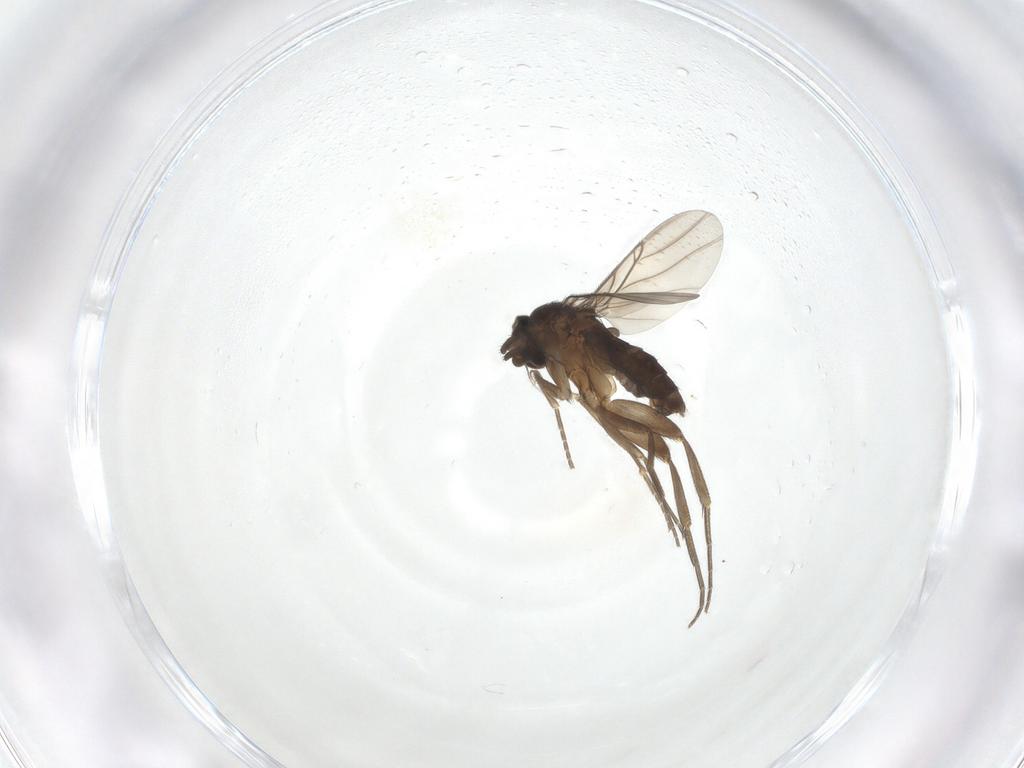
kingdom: Animalia
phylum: Arthropoda
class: Insecta
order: Diptera
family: Phoridae
